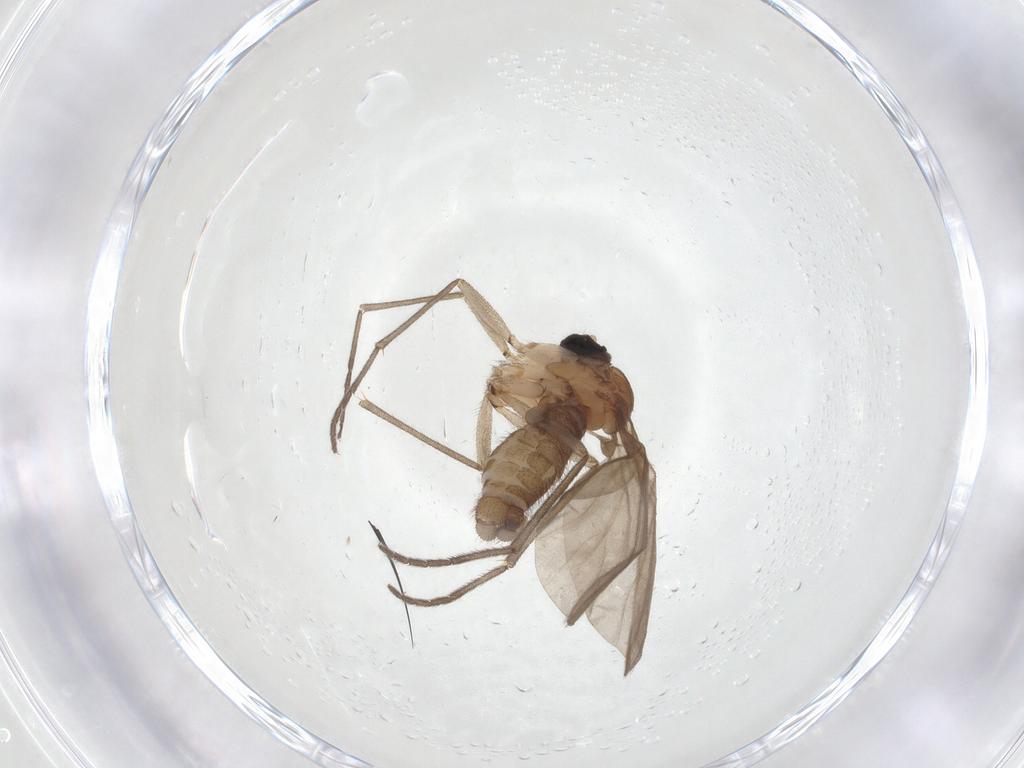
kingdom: Animalia
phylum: Arthropoda
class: Insecta
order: Diptera
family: Sciaridae
